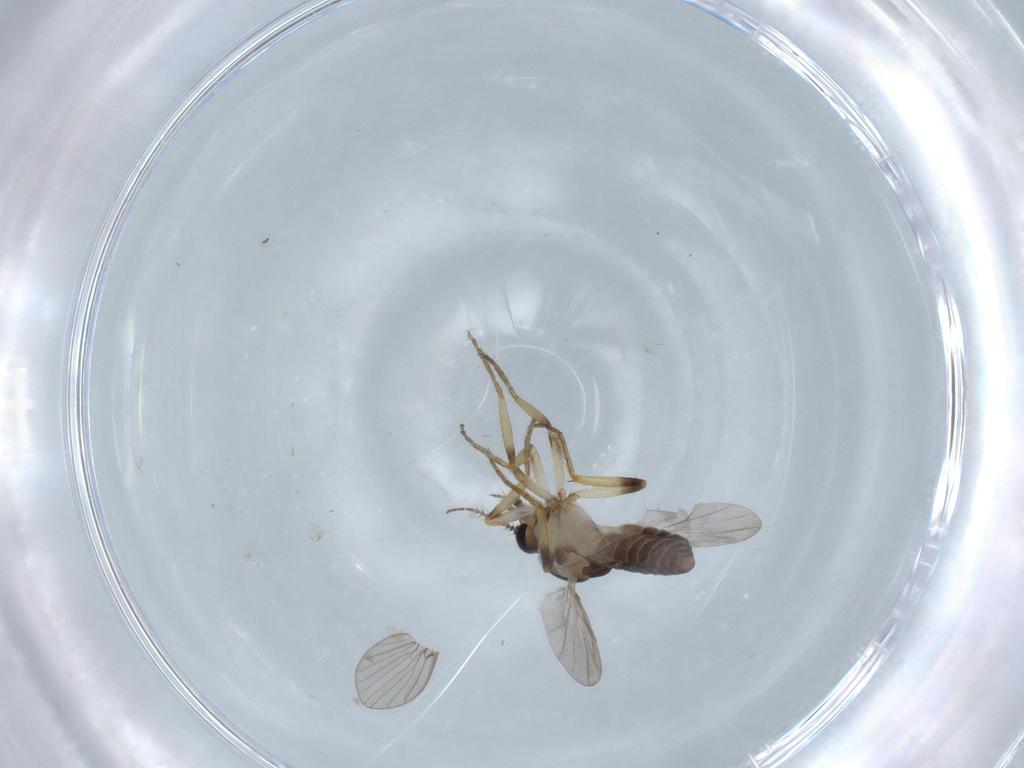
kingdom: Animalia
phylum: Arthropoda
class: Insecta
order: Diptera
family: Ceratopogonidae
